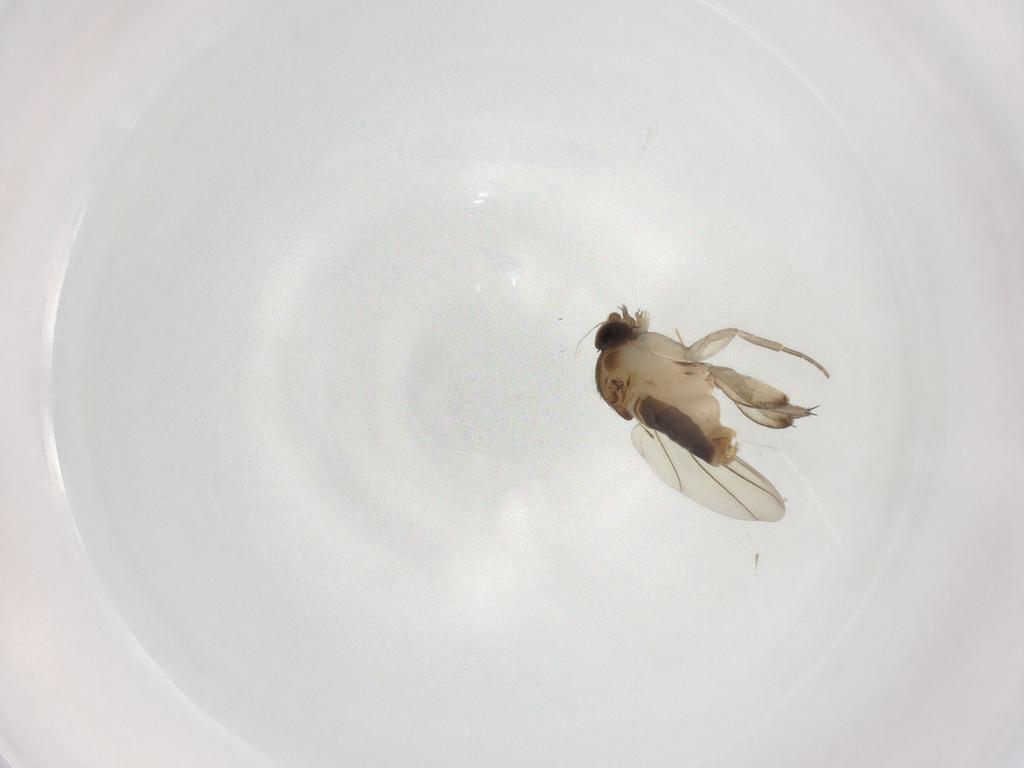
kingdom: Animalia
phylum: Arthropoda
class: Insecta
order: Diptera
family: Phoridae
